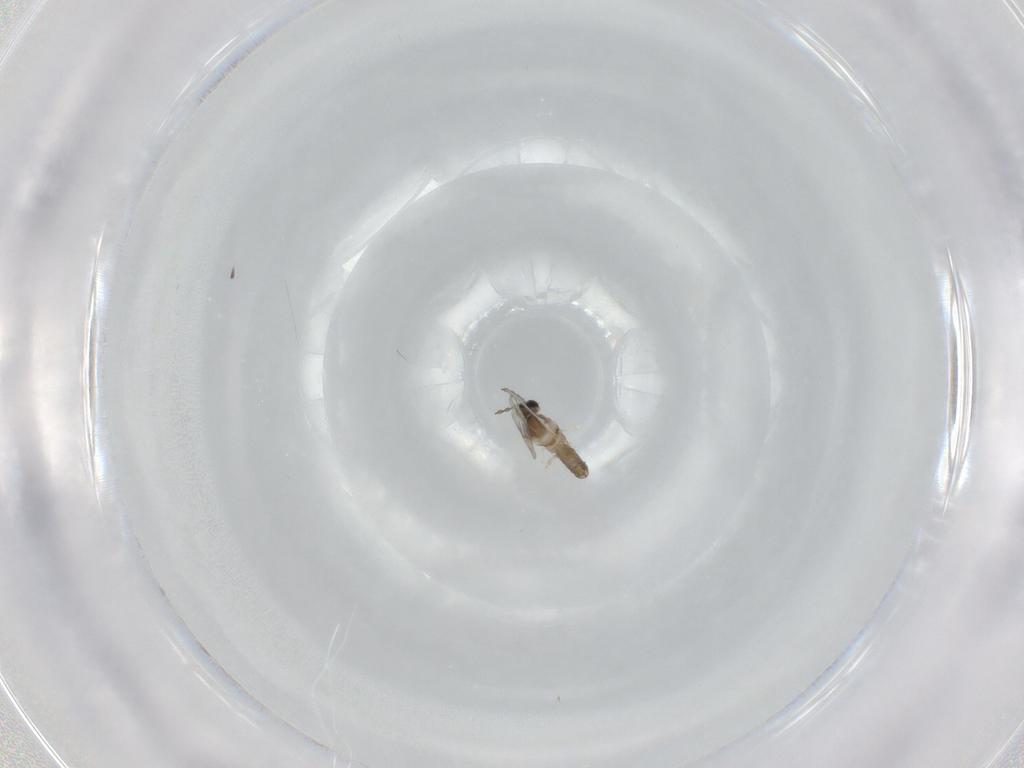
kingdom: Animalia
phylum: Arthropoda
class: Insecta
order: Diptera
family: Cecidomyiidae
